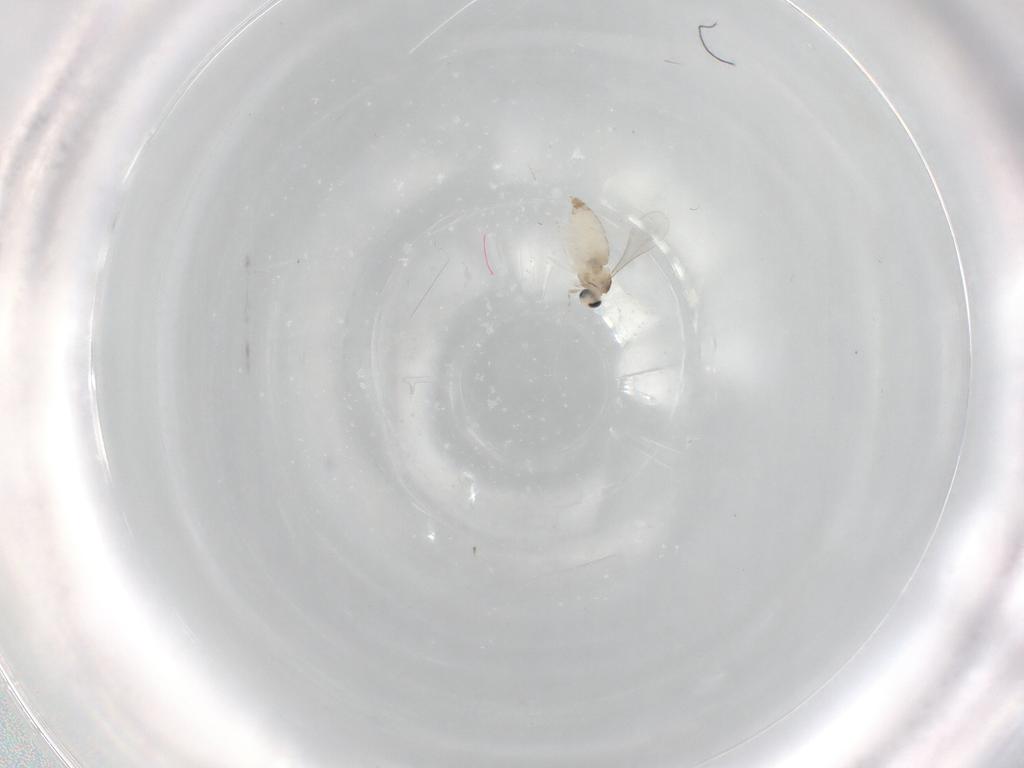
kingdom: Animalia
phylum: Arthropoda
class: Insecta
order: Diptera
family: Cecidomyiidae
